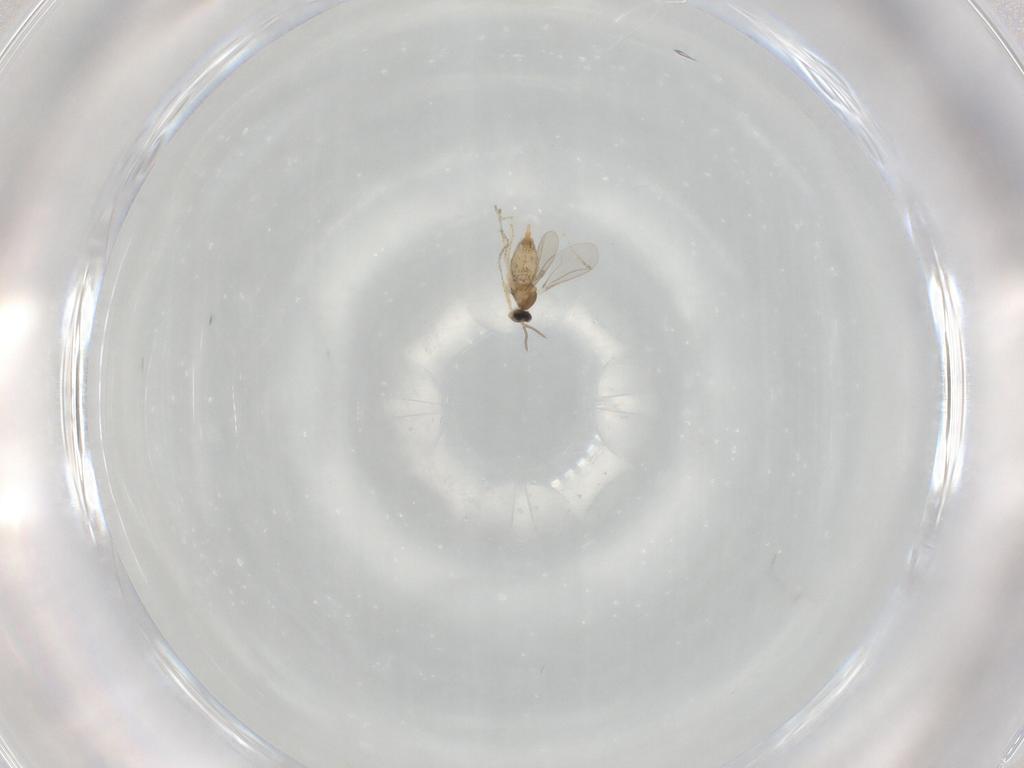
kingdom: Animalia
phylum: Arthropoda
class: Insecta
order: Diptera
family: Cecidomyiidae
